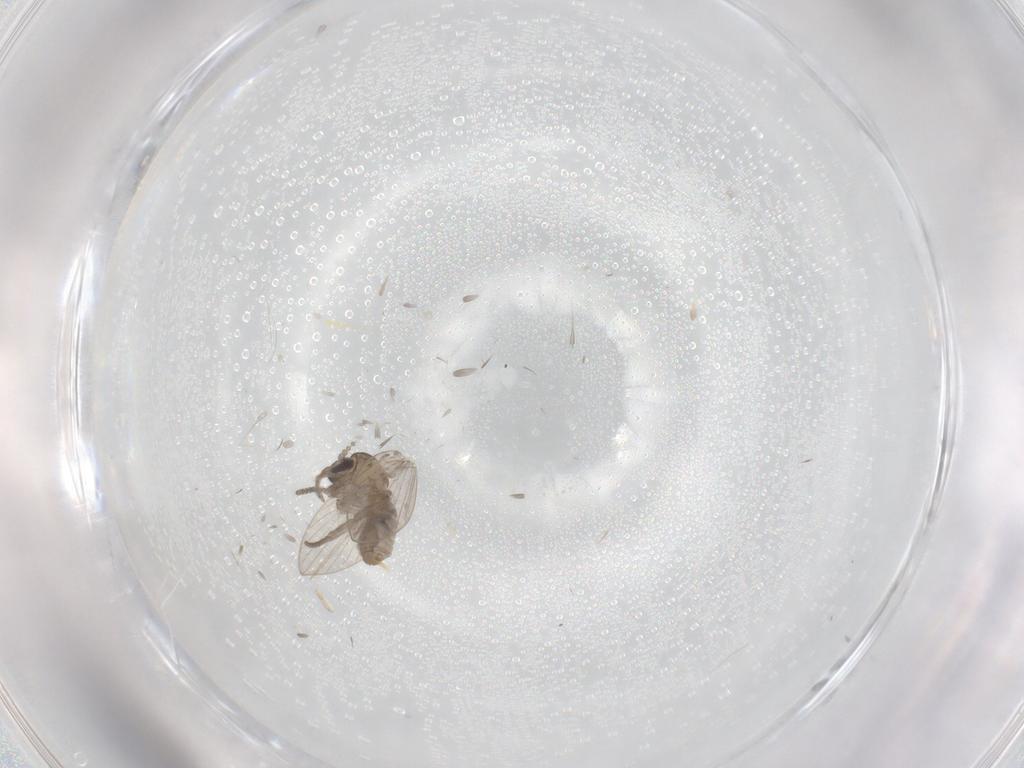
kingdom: Animalia
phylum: Arthropoda
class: Insecta
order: Diptera
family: Chironomidae
